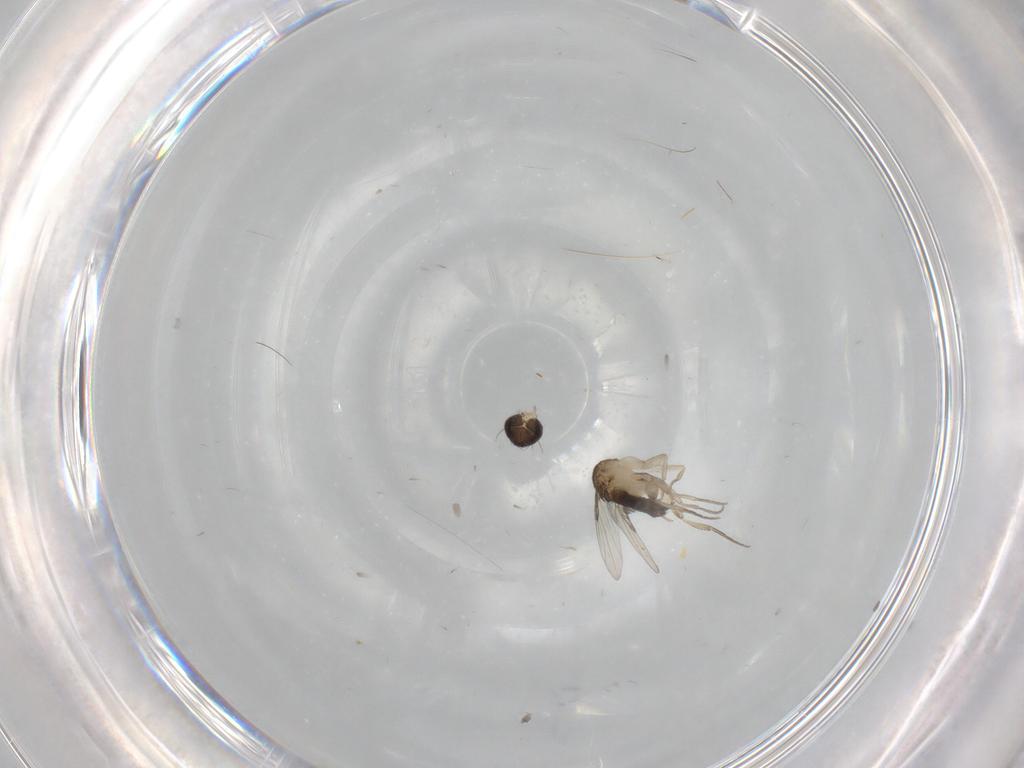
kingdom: Animalia
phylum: Arthropoda
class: Insecta
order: Diptera
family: Phoridae
